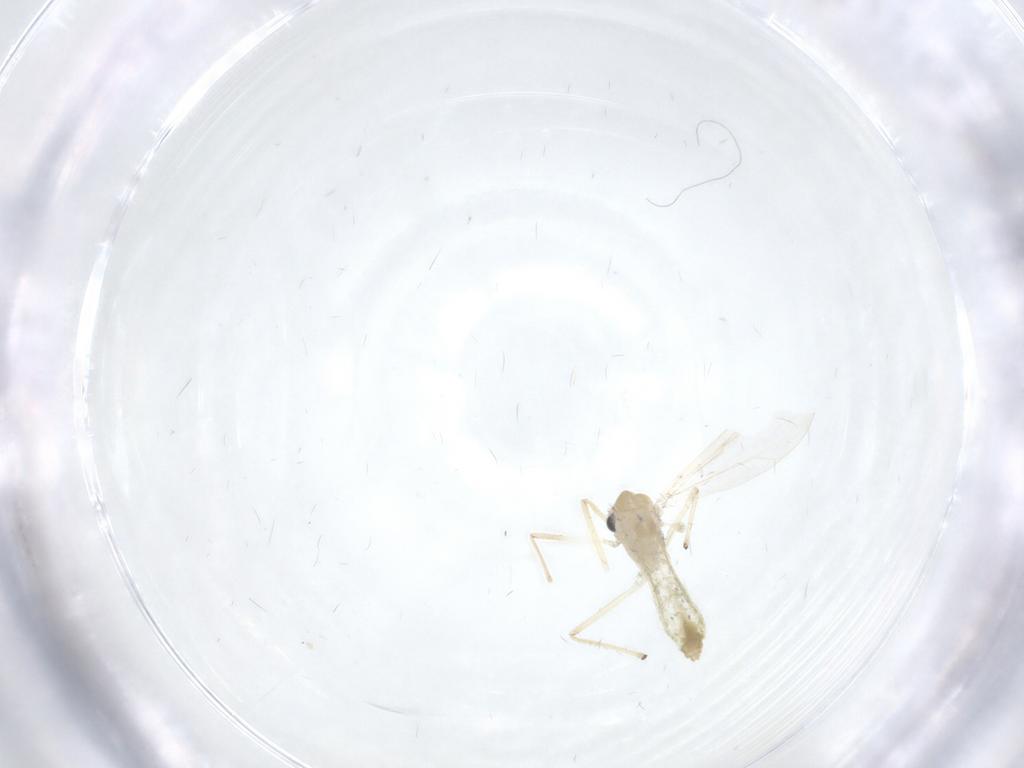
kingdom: Animalia
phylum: Arthropoda
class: Insecta
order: Diptera
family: Chironomidae
